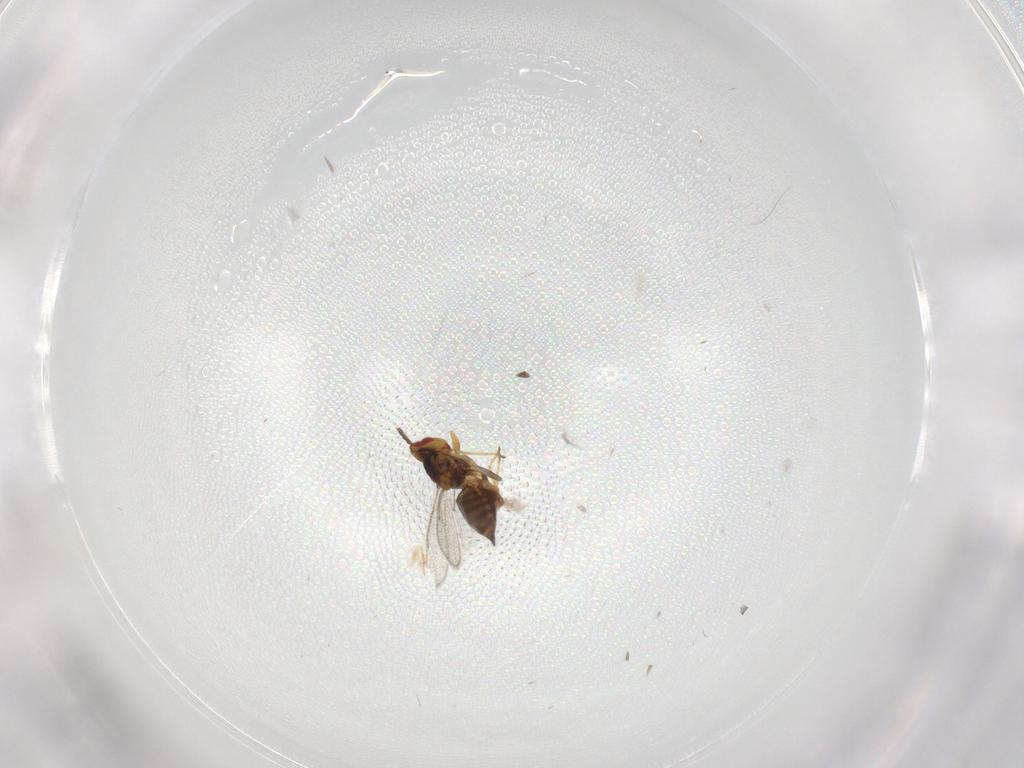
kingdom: Animalia
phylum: Arthropoda
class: Insecta
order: Hymenoptera
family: Eulophidae
